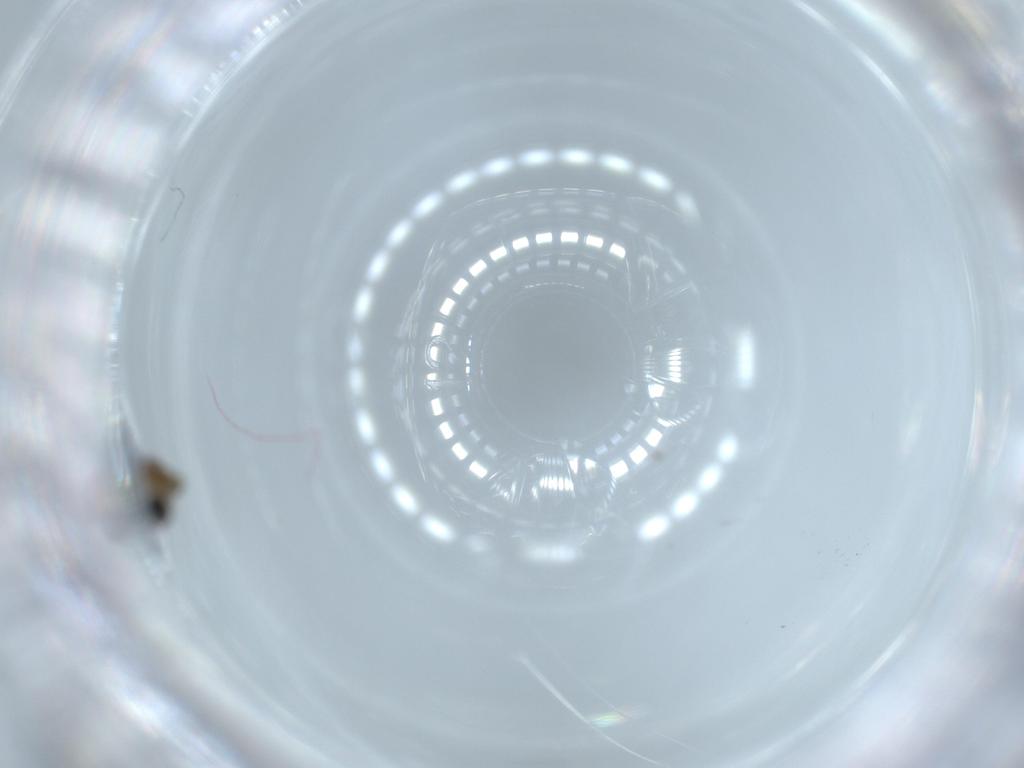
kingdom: Animalia
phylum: Arthropoda
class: Insecta
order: Diptera
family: Cecidomyiidae
